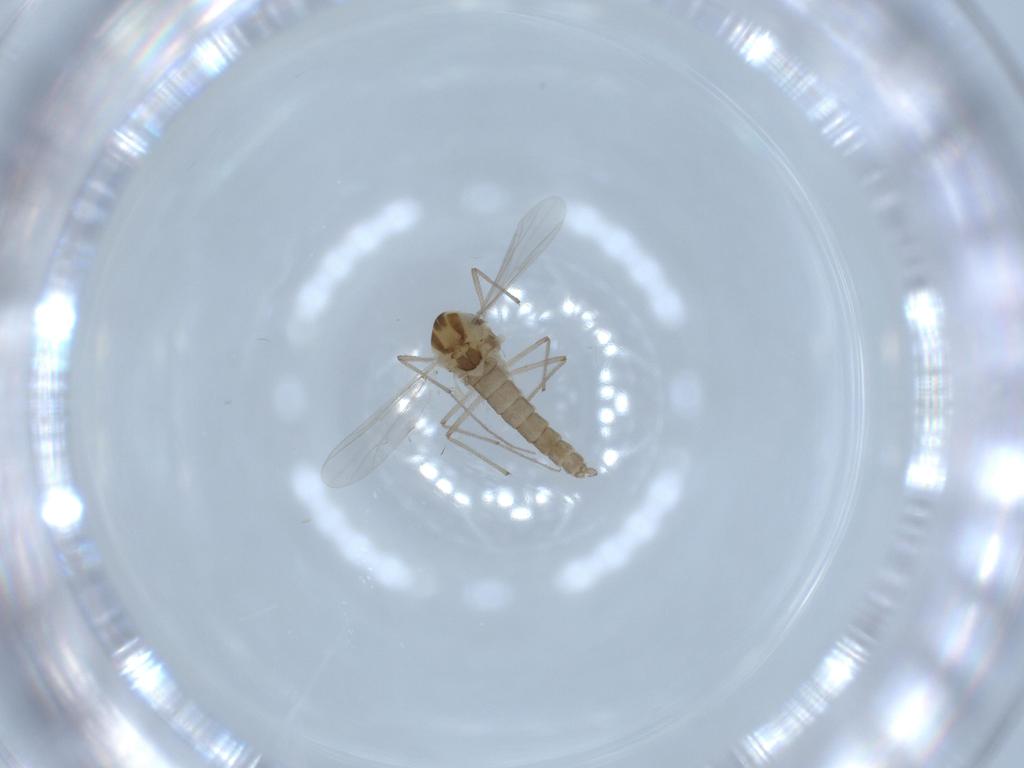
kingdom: Animalia
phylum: Arthropoda
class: Insecta
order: Diptera
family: Chironomidae
